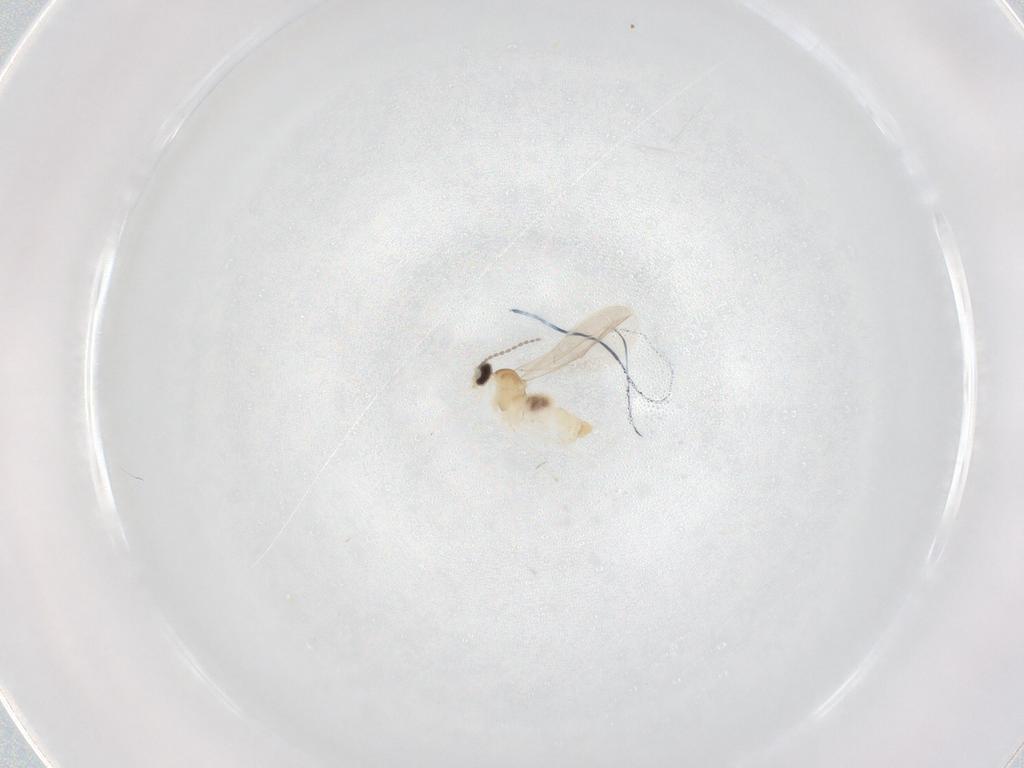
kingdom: Animalia
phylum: Arthropoda
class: Insecta
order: Diptera
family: Cecidomyiidae
